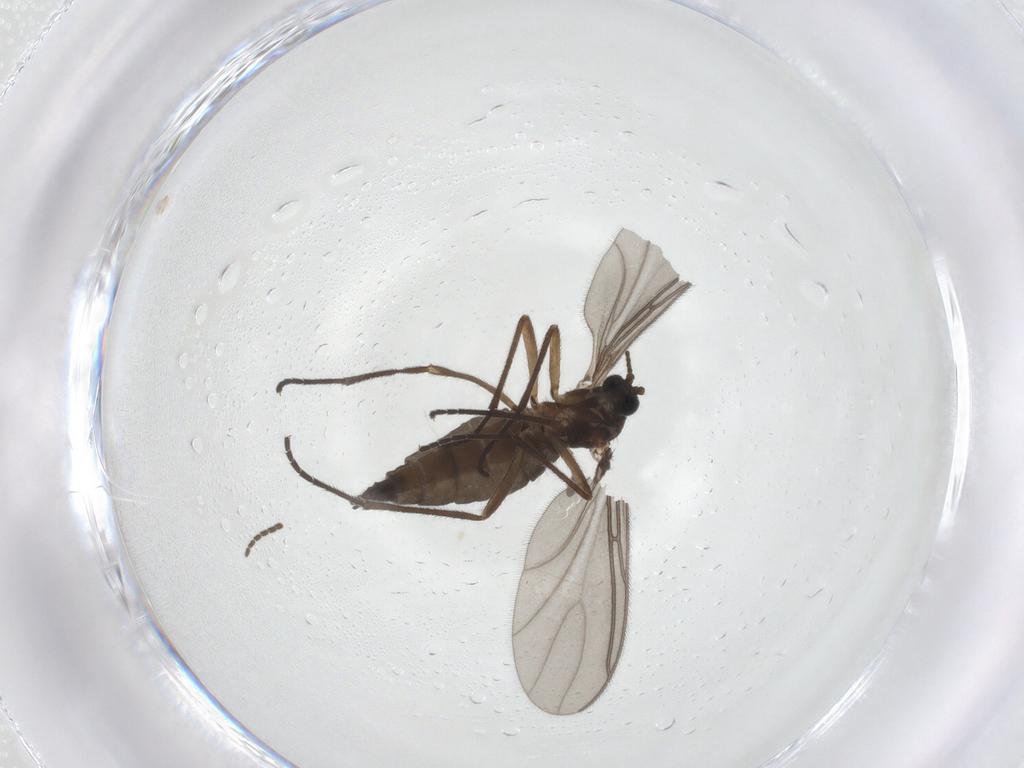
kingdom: Animalia
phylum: Arthropoda
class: Insecta
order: Diptera
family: Sciaridae
